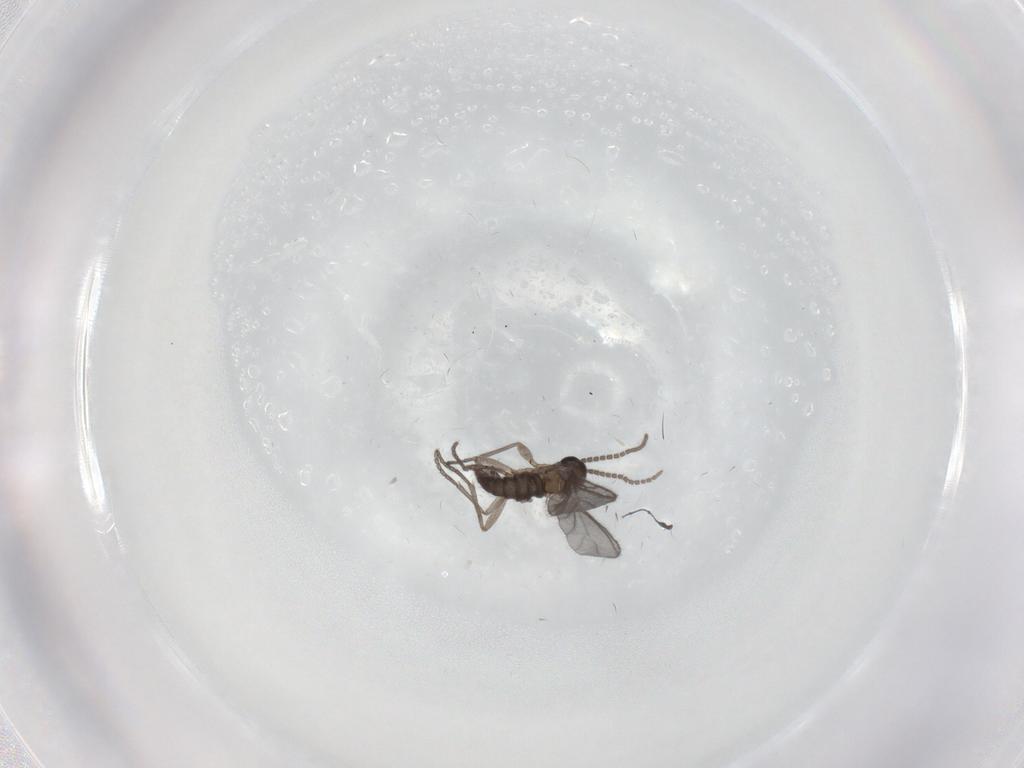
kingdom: Animalia
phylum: Arthropoda
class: Insecta
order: Diptera
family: Sciaridae
